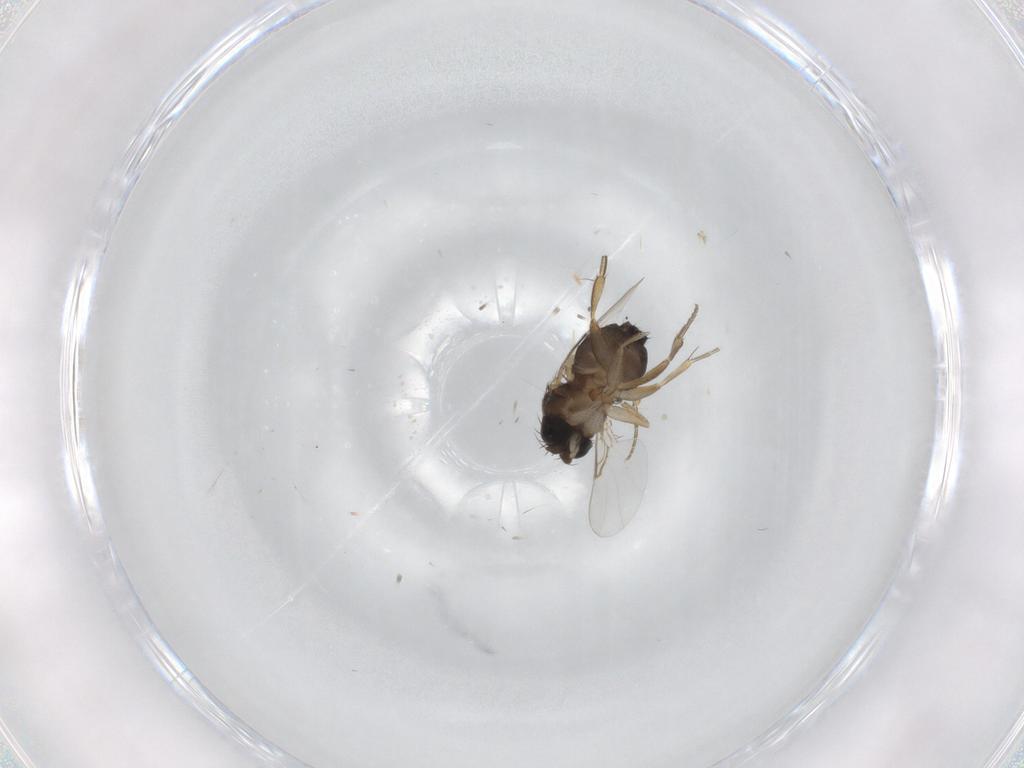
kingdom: Animalia
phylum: Arthropoda
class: Insecta
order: Diptera
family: Phoridae
